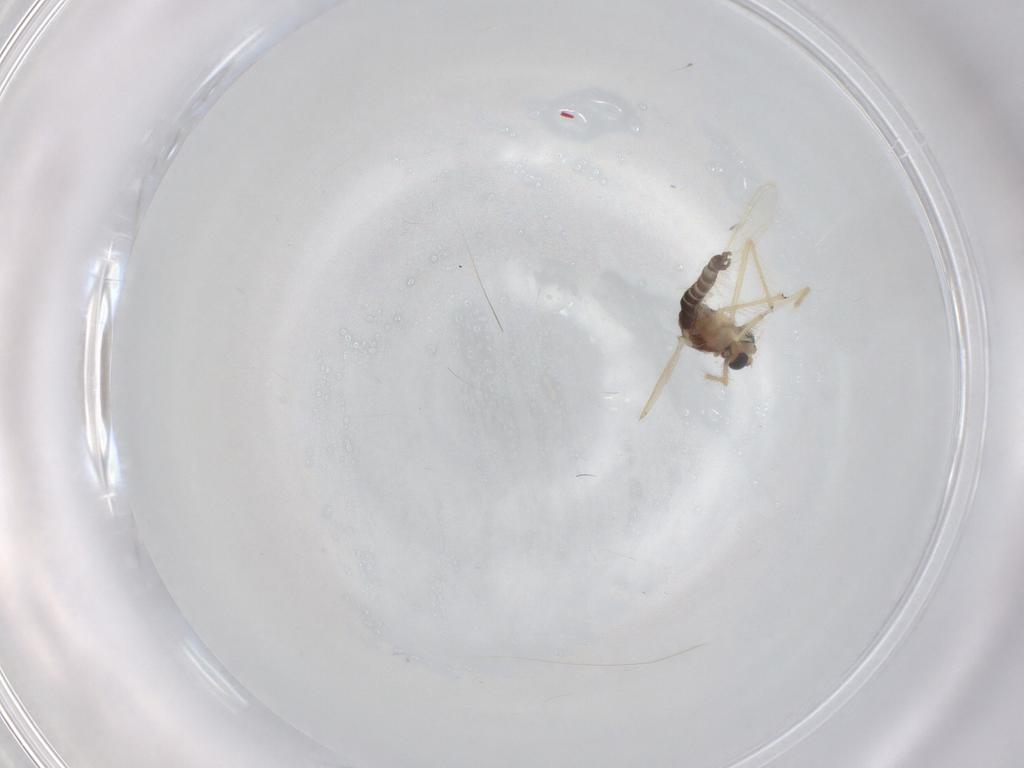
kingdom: Animalia
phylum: Arthropoda
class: Insecta
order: Diptera
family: Chironomidae
